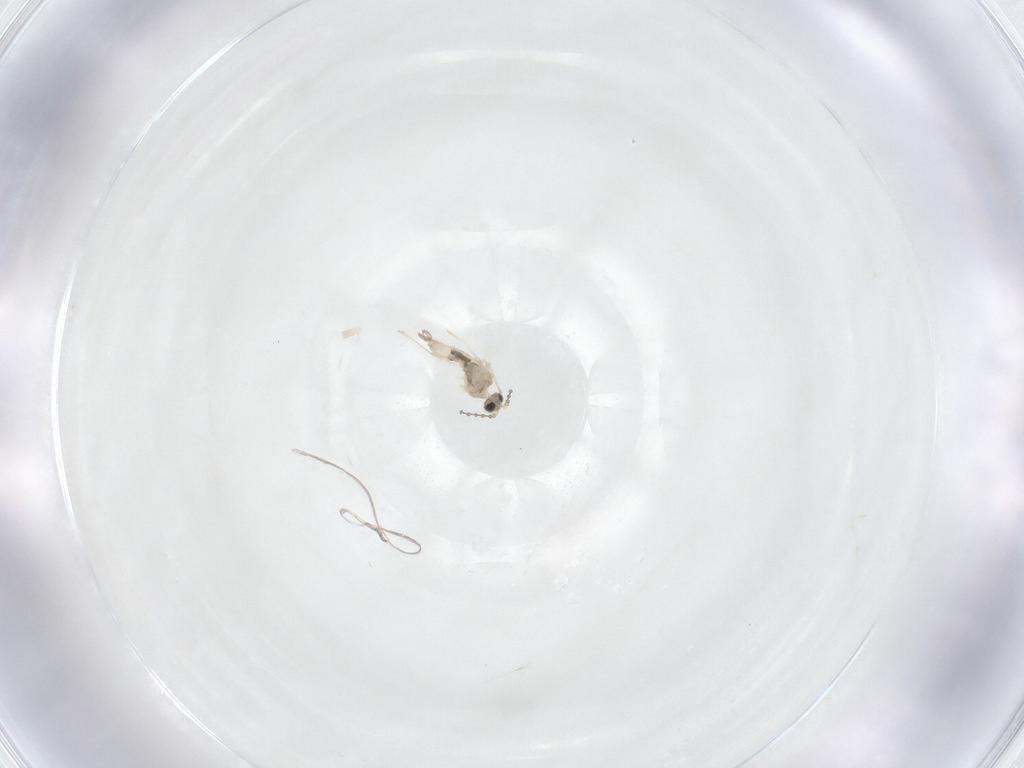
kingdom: Animalia
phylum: Arthropoda
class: Insecta
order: Diptera
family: Cecidomyiidae
